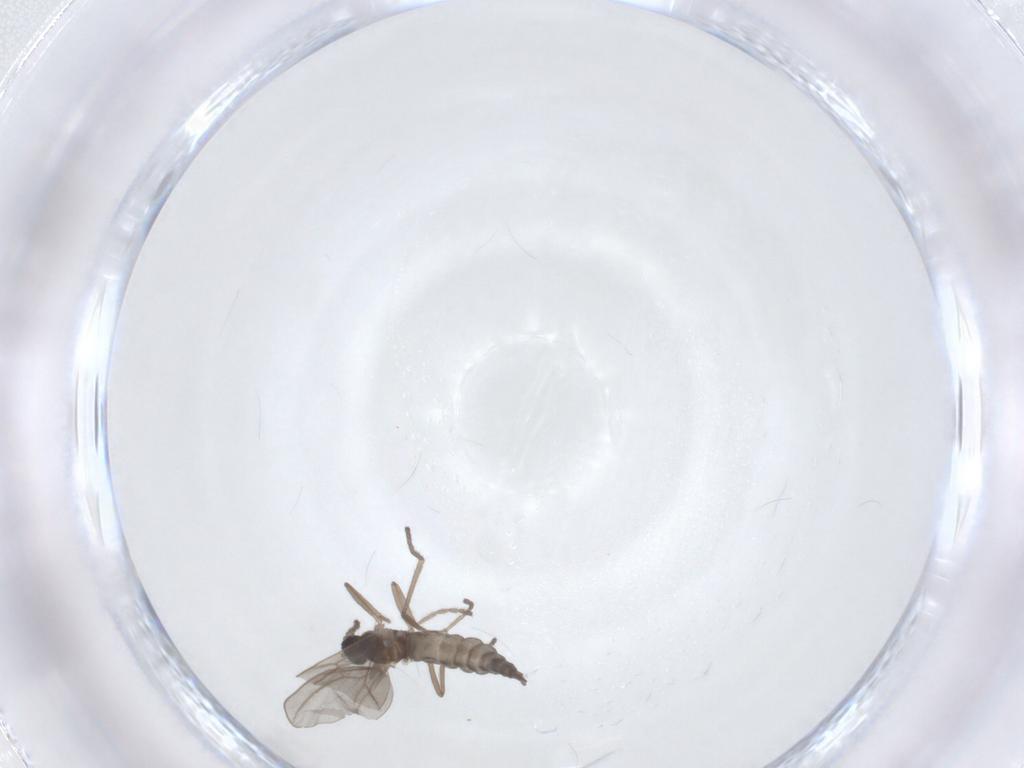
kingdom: Animalia
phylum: Arthropoda
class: Insecta
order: Diptera
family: Cecidomyiidae
